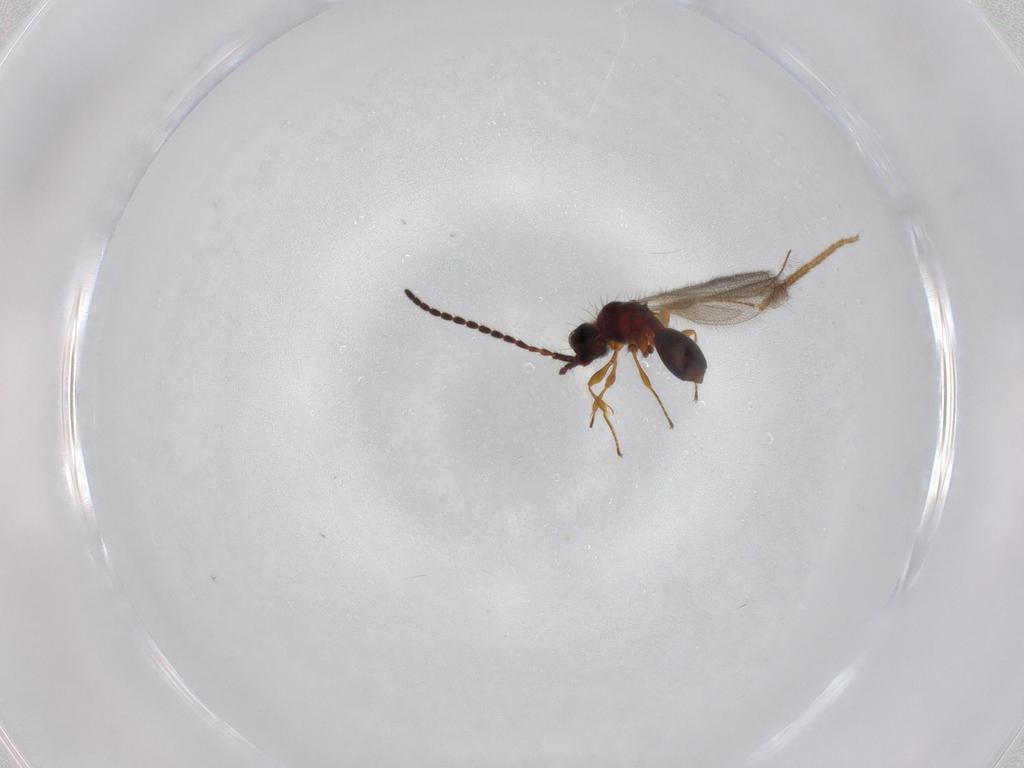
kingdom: Animalia
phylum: Arthropoda
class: Insecta
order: Hymenoptera
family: Diapriidae
